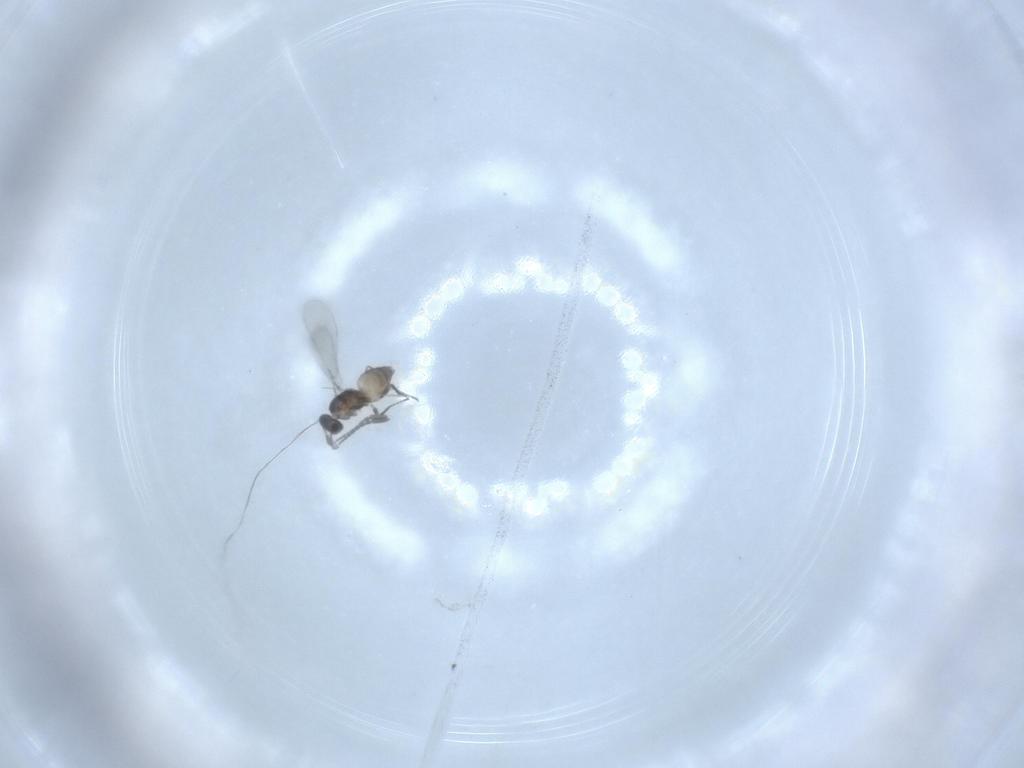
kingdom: Animalia
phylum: Arthropoda
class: Insecta
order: Hymenoptera
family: Mymaridae
